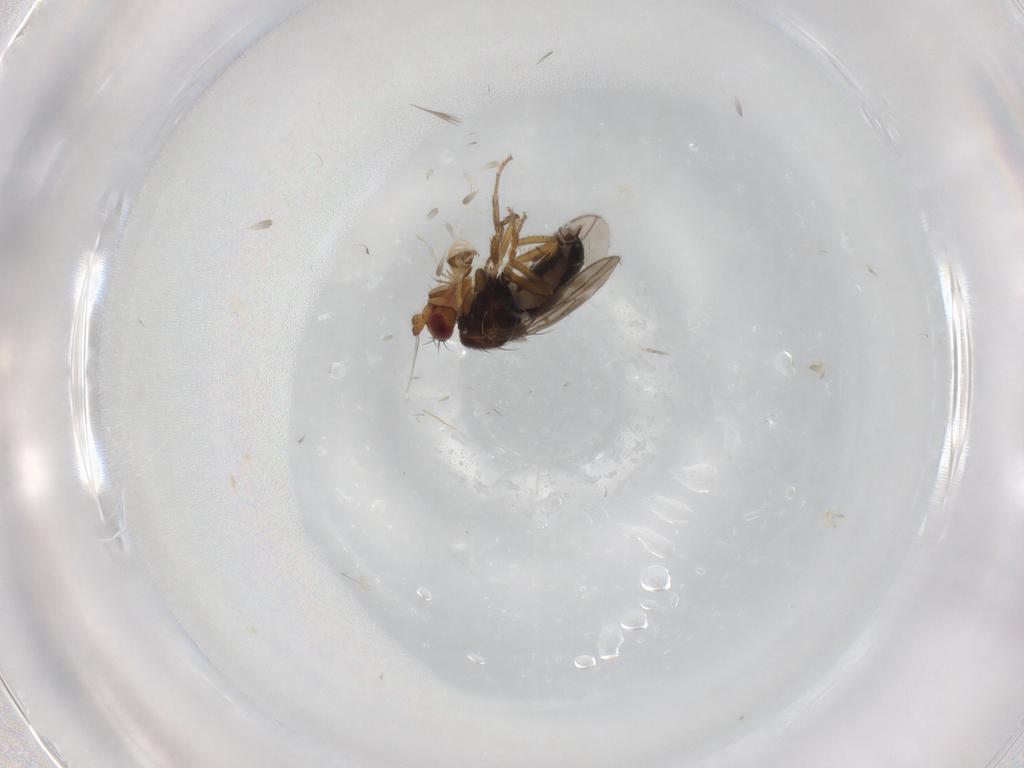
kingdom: Animalia
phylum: Arthropoda
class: Insecta
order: Diptera
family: Sphaeroceridae
